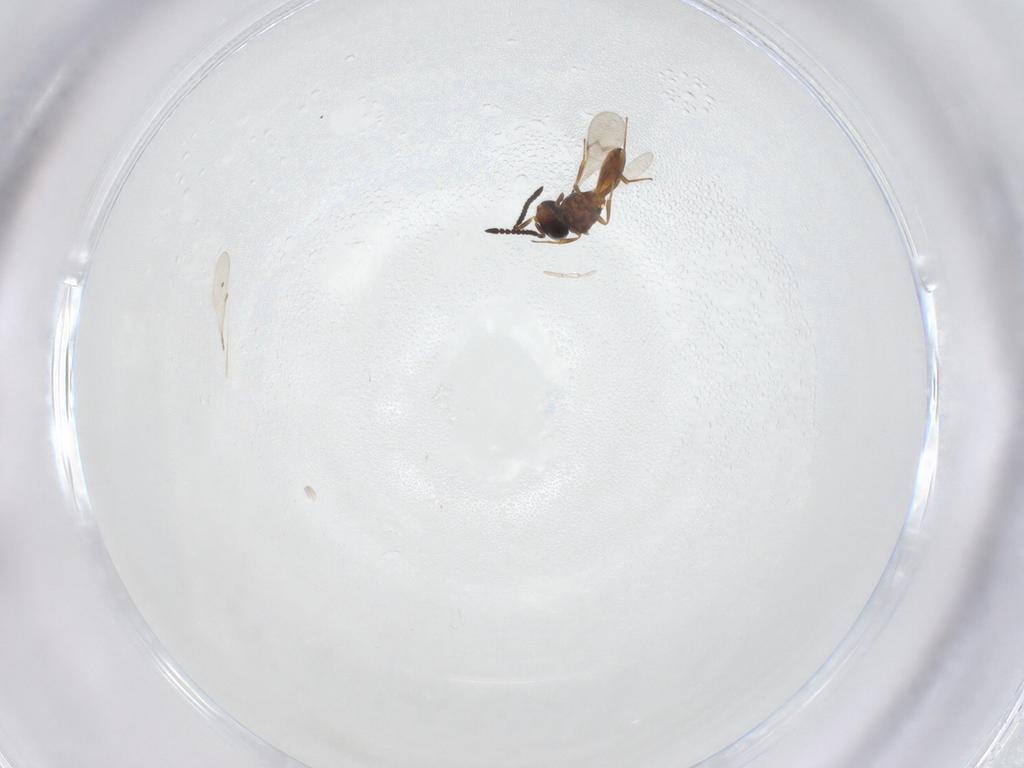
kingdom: Animalia
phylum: Arthropoda
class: Insecta
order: Hymenoptera
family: Scelionidae
